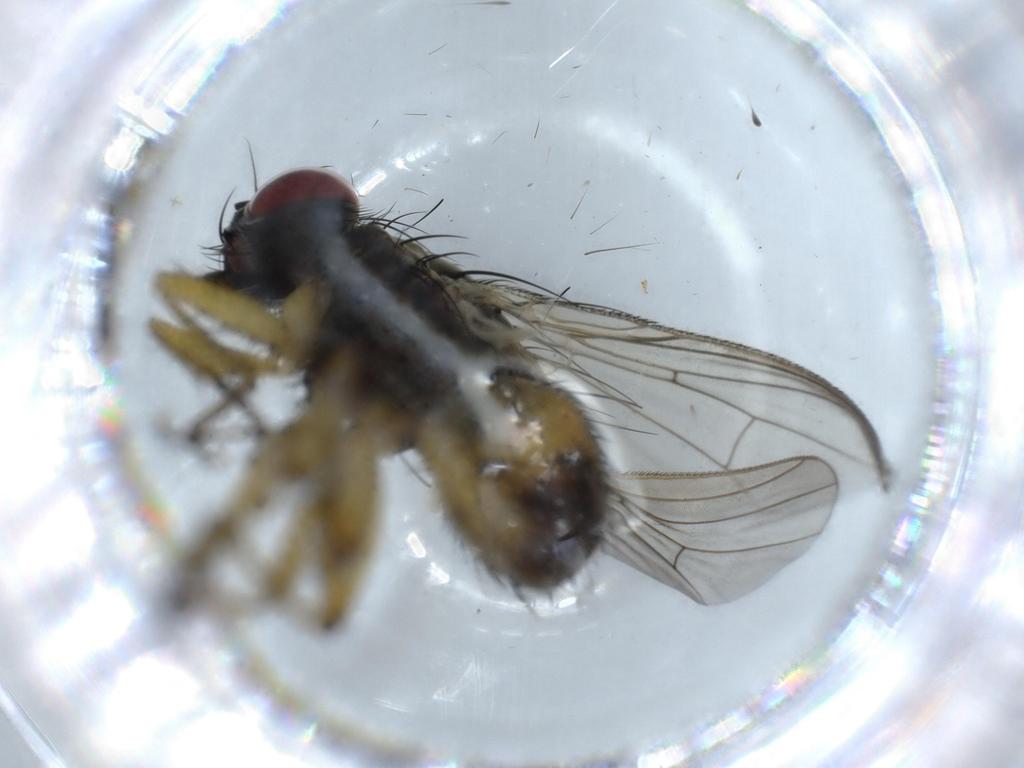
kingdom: Animalia
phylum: Arthropoda
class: Insecta
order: Diptera
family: Muscidae
